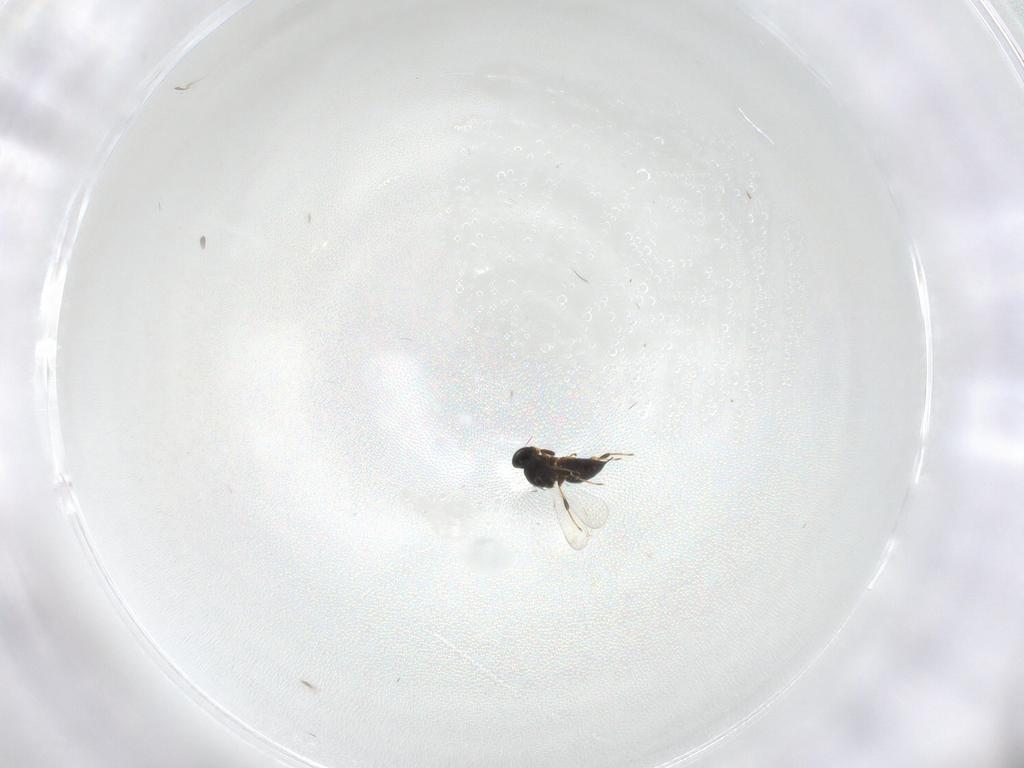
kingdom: Animalia
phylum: Arthropoda
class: Insecta
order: Hymenoptera
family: Platygastridae
